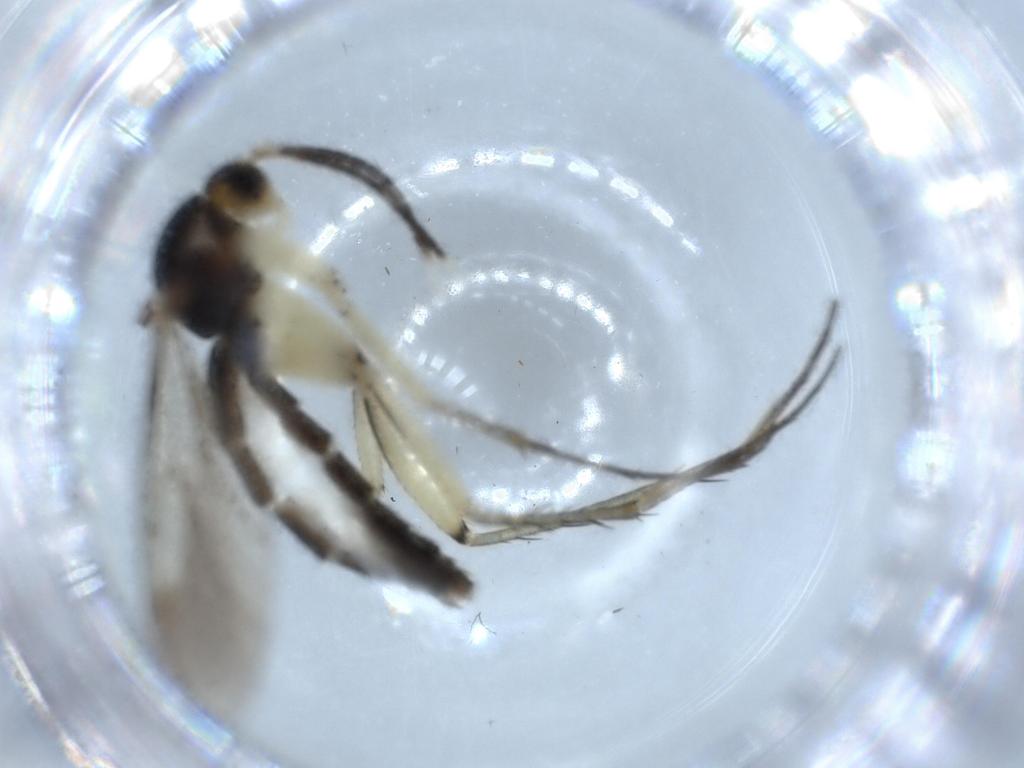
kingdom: Animalia
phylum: Arthropoda
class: Insecta
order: Diptera
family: Lauxaniidae
